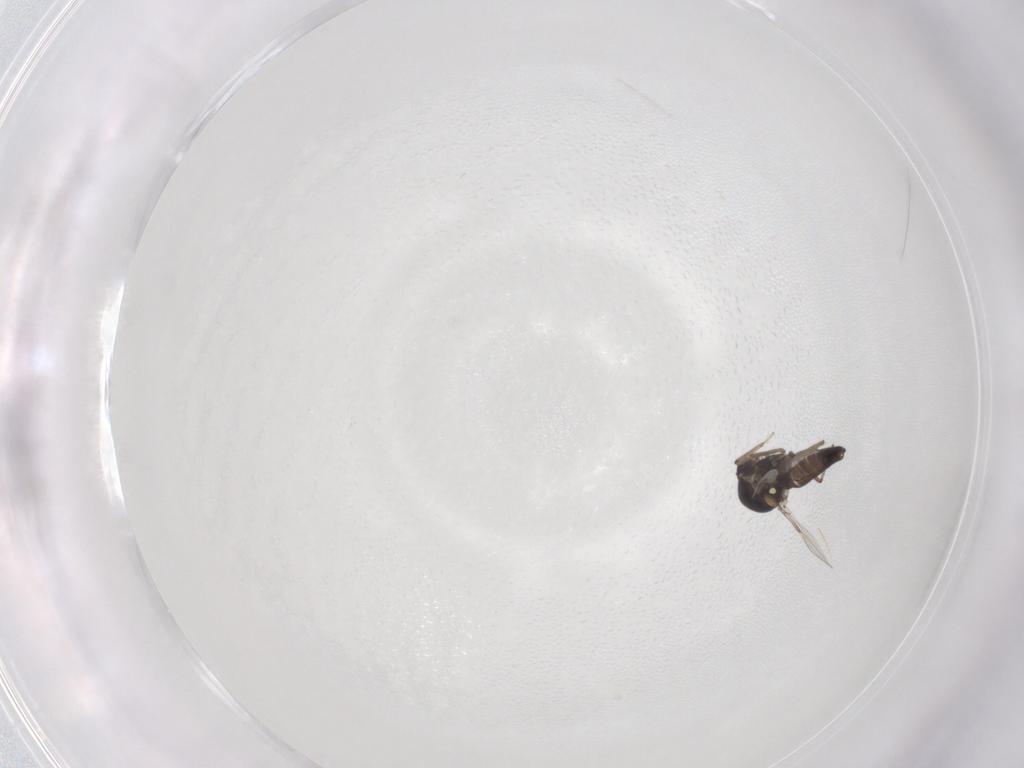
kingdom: Animalia
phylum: Arthropoda
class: Insecta
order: Diptera
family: Ceratopogonidae
